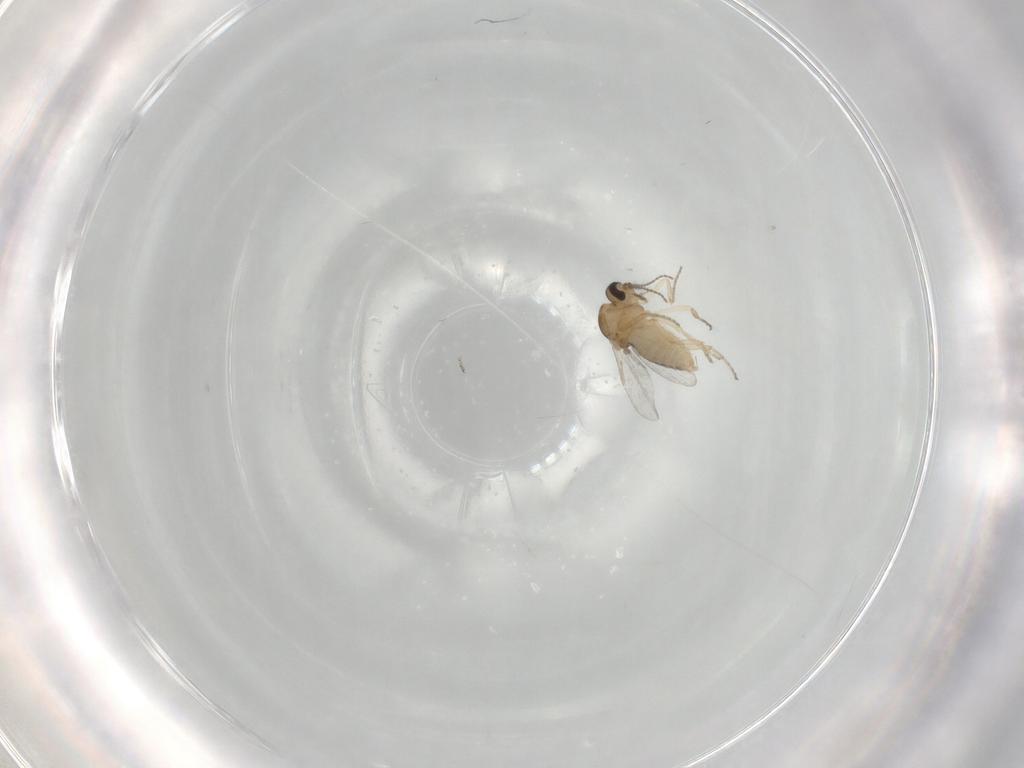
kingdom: Animalia
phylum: Arthropoda
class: Insecta
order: Diptera
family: Ceratopogonidae
